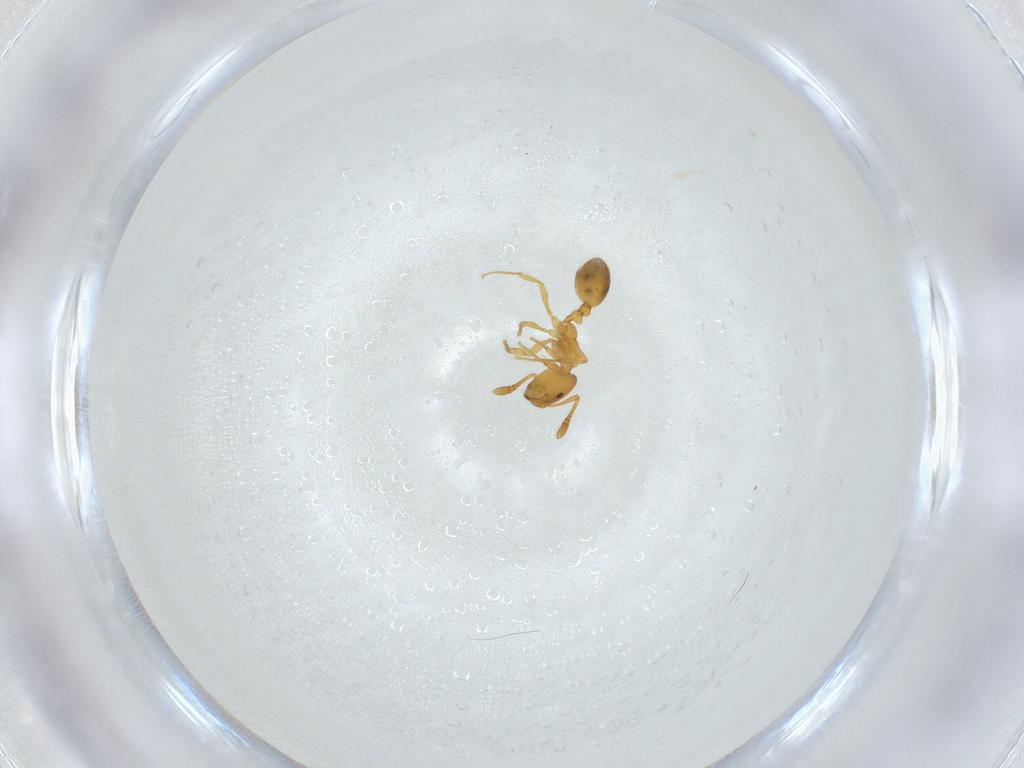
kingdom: Animalia
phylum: Arthropoda
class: Insecta
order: Hymenoptera
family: Formicidae
